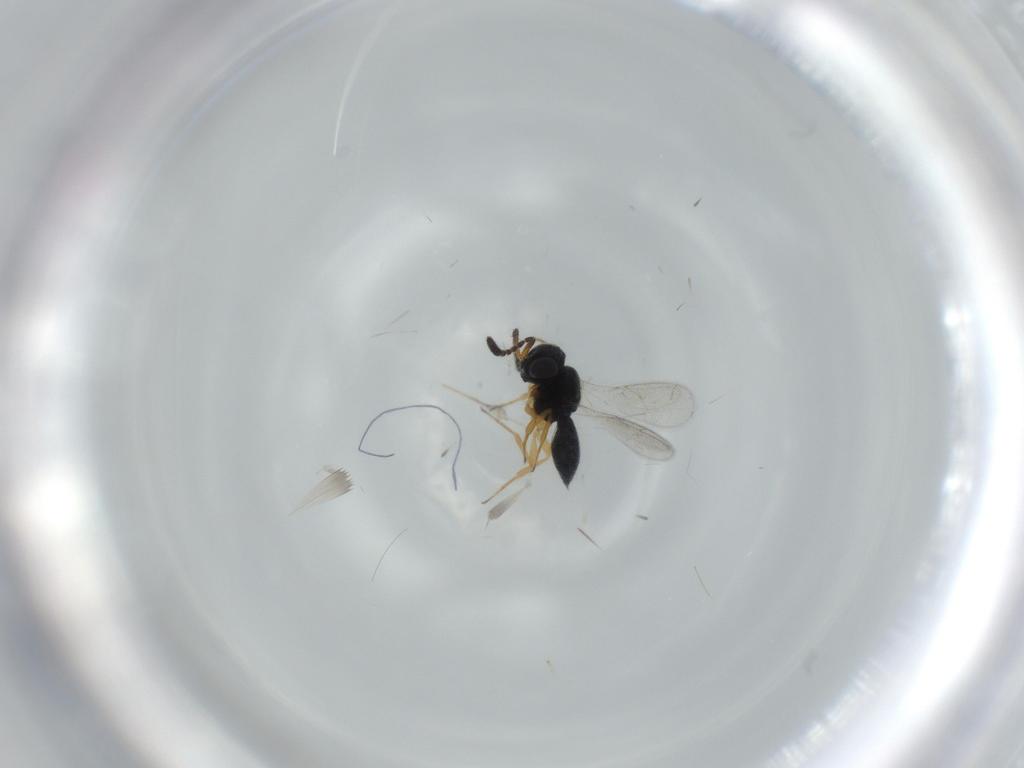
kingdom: Animalia
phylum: Arthropoda
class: Insecta
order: Hymenoptera
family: Scelionidae
